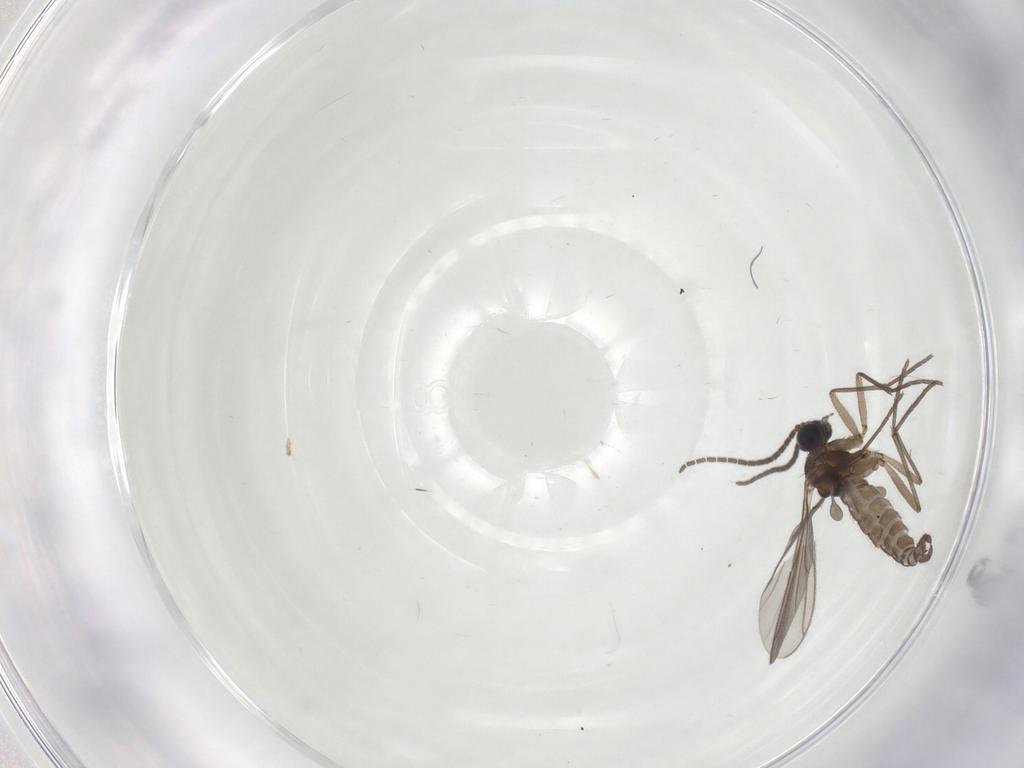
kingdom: Animalia
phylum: Arthropoda
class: Insecta
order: Diptera
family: Sciaridae
